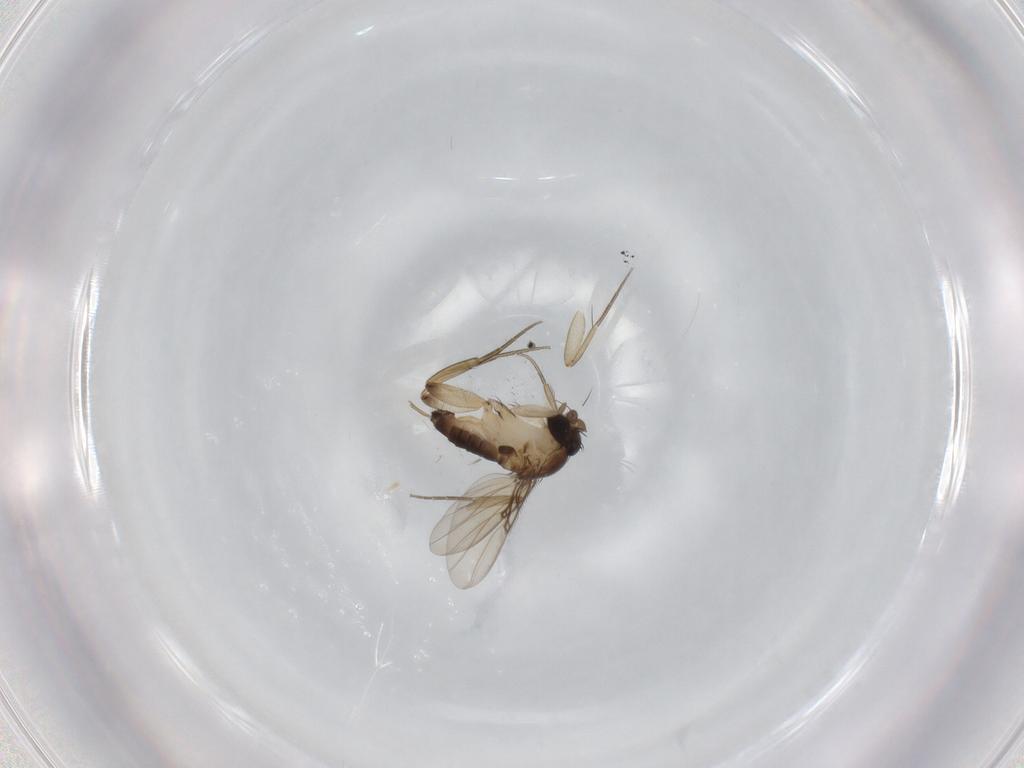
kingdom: Animalia
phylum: Arthropoda
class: Insecta
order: Diptera
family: Phoridae
